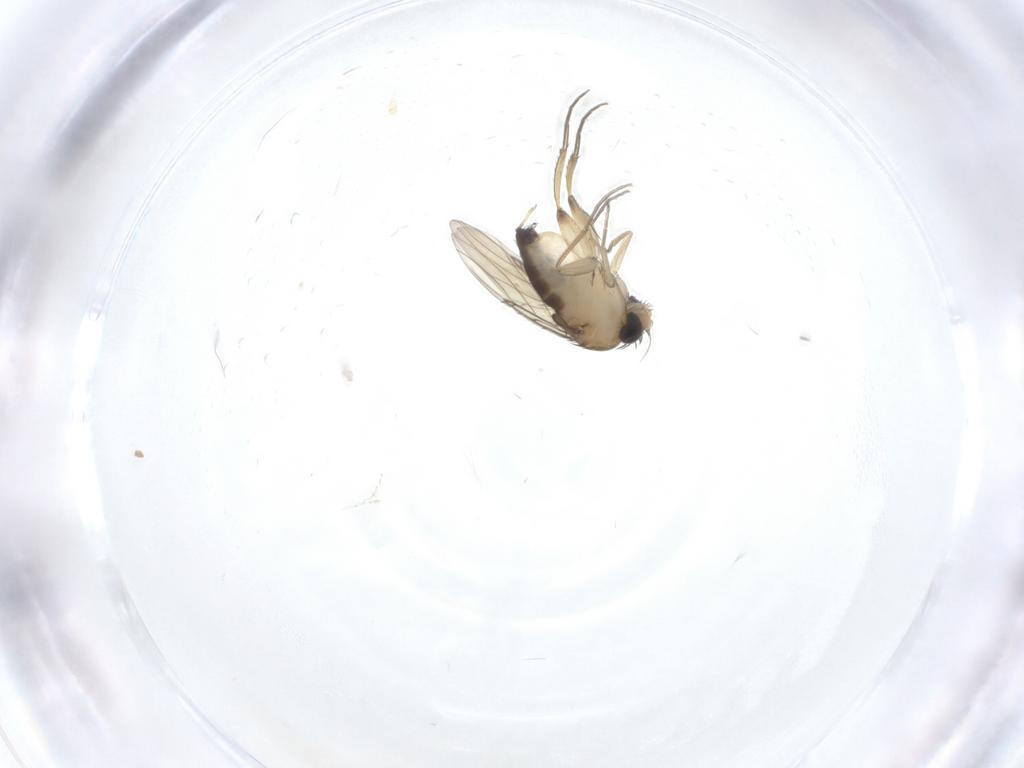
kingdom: Animalia
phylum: Arthropoda
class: Insecta
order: Diptera
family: Phoridae
